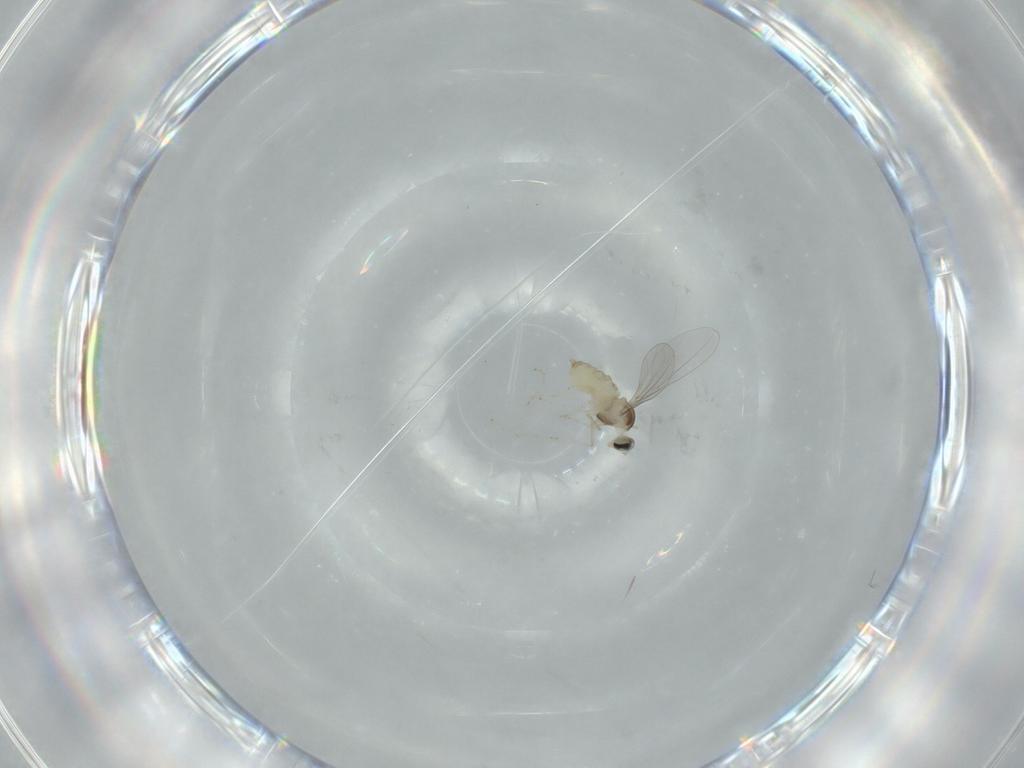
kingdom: Animalia
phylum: Arthropoda
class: Insecta
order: Diptera
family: Cecidomyiidae
